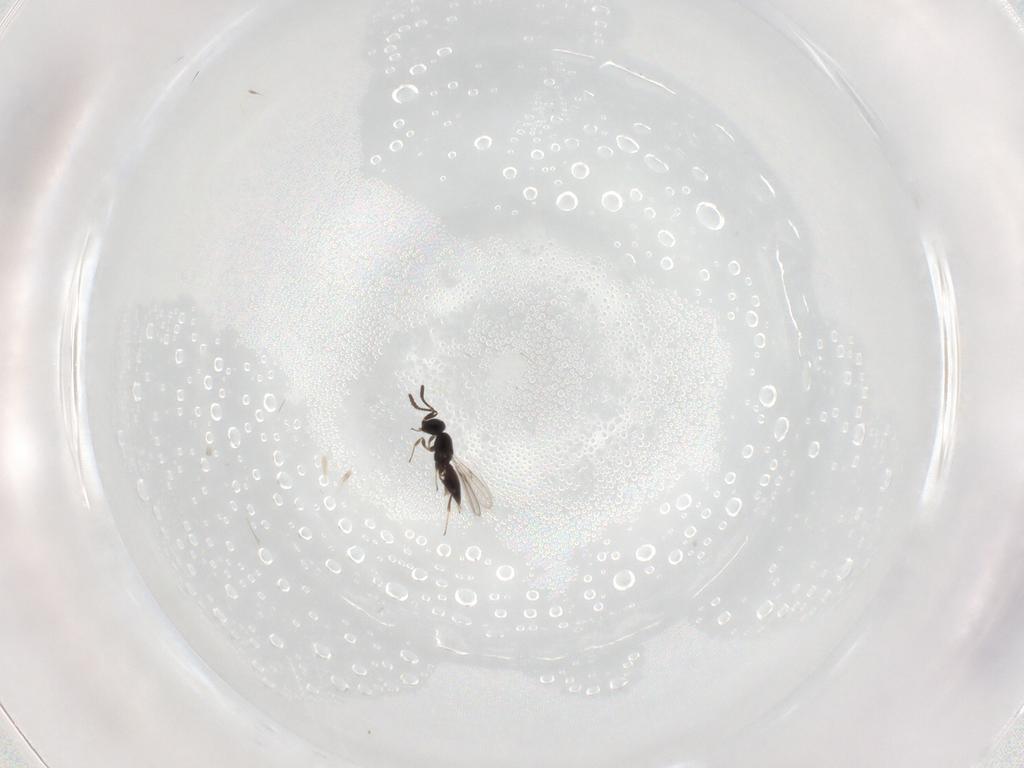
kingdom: Animalia
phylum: Arthropoda
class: Insecta
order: Hymenoptera
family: Scelionidae
